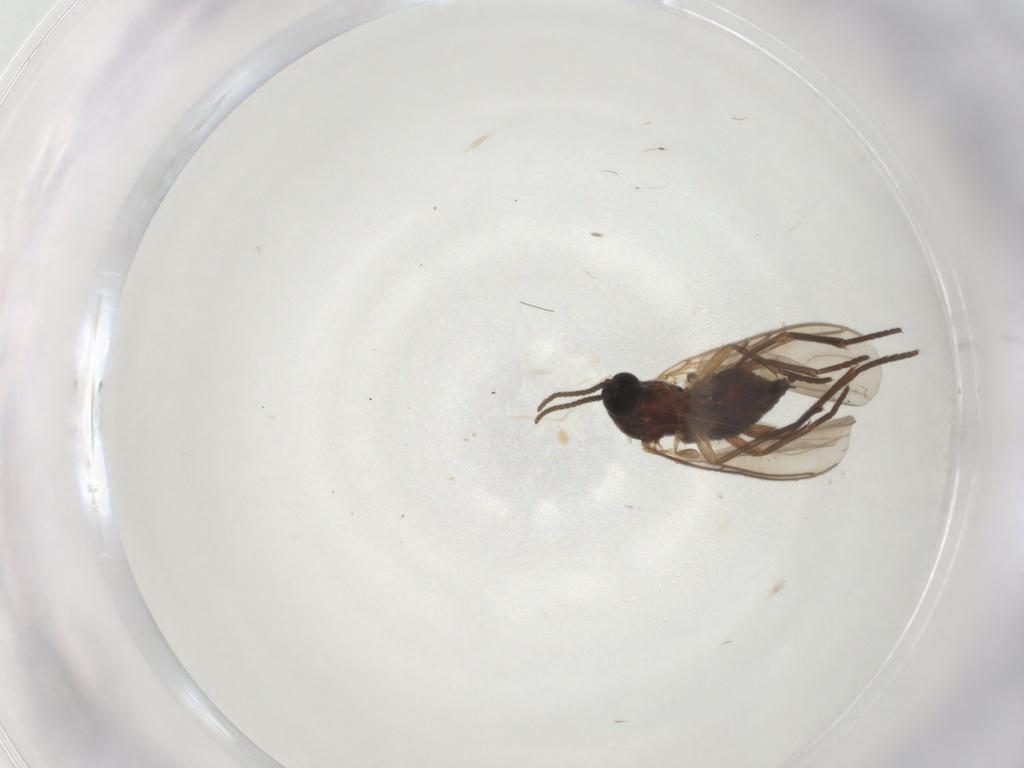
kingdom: Animalia
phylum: Arthropoda
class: Insecta
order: Diptera
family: Sciaridae
